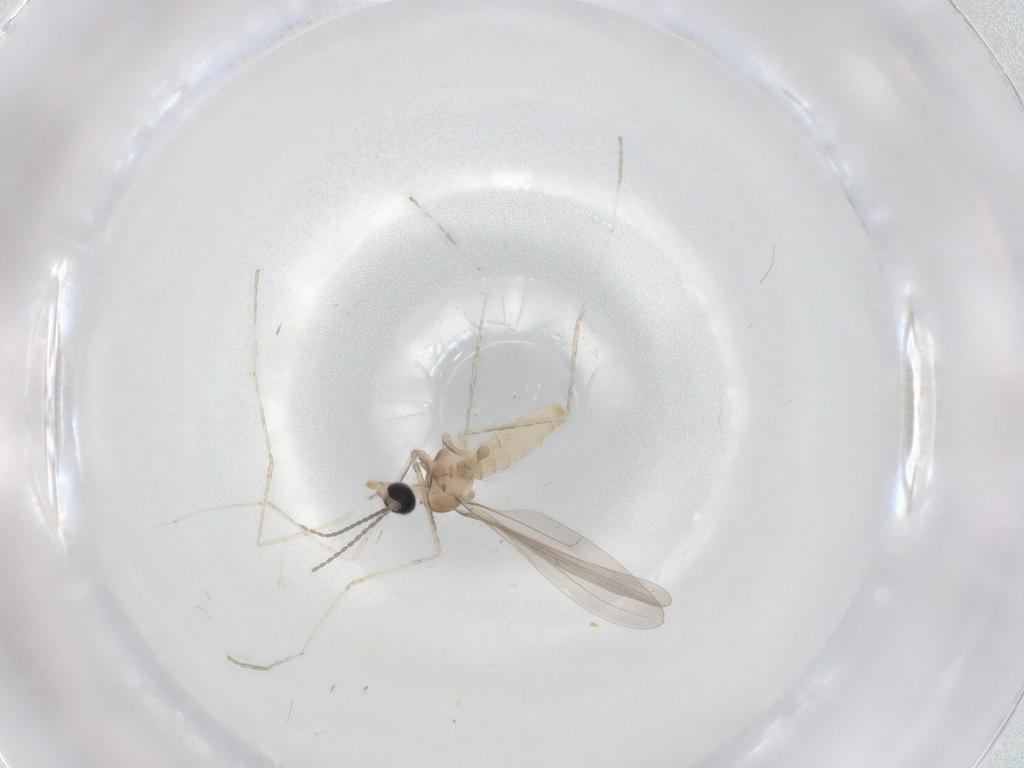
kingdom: Animalia
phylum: Arthropoda
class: Insecta
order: Diptera
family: Cecidomyiidae
